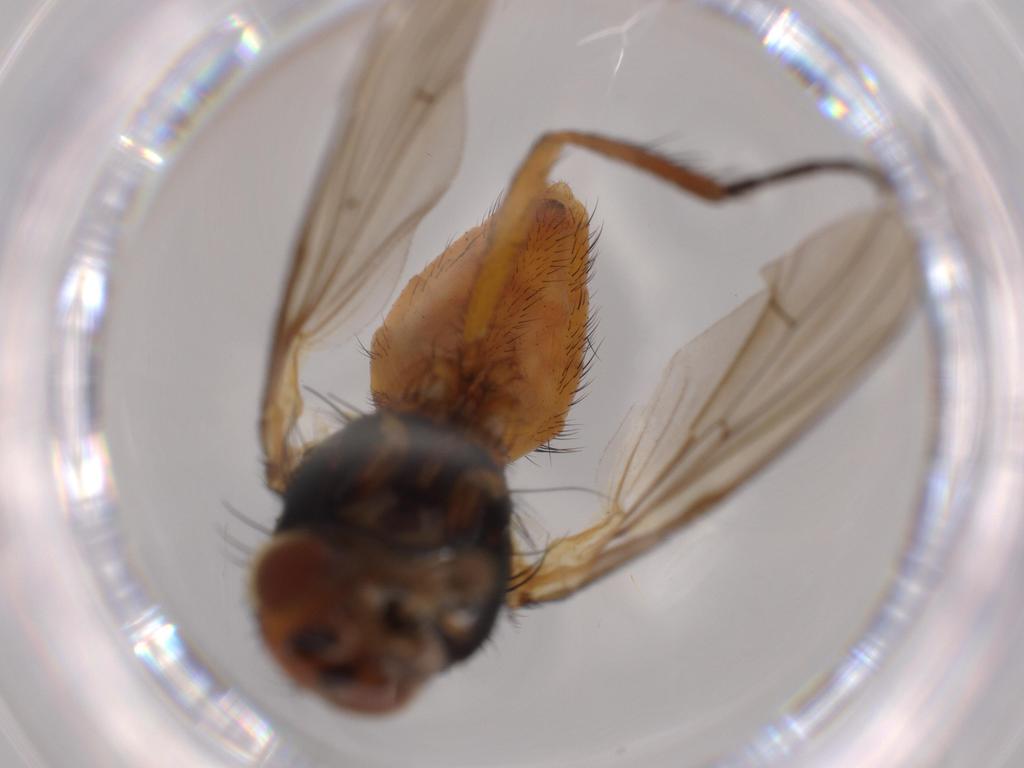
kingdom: Animalia
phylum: Arthropoda
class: Insecta
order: Diptera
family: Anthomyiidae
